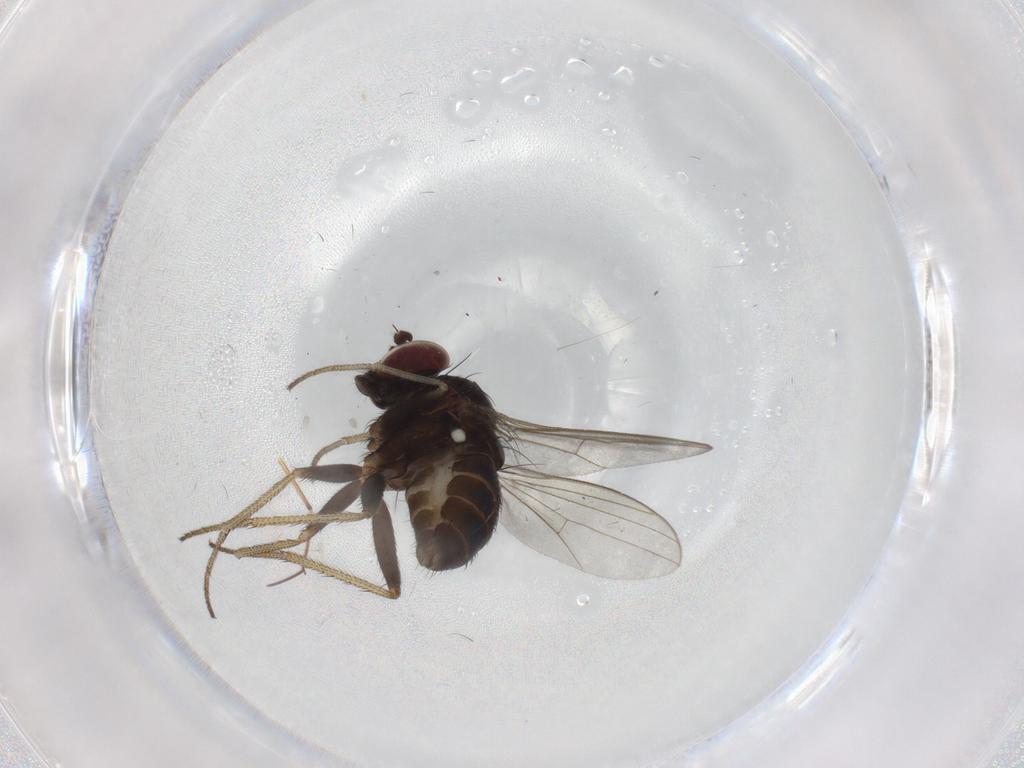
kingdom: Animalia
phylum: Arthropoda
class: Insecta
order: Diptera
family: Dolichopodidae
